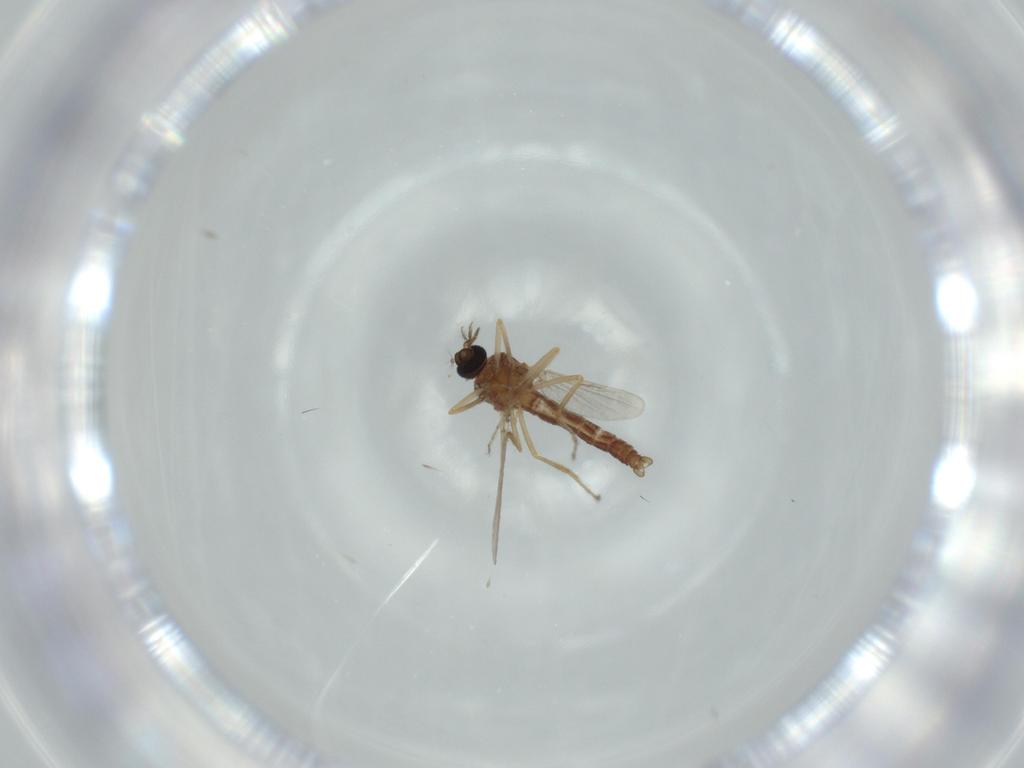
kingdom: Animalia
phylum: Arthropoda
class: Insecta
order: Diptera
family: Ceratopogonidae
